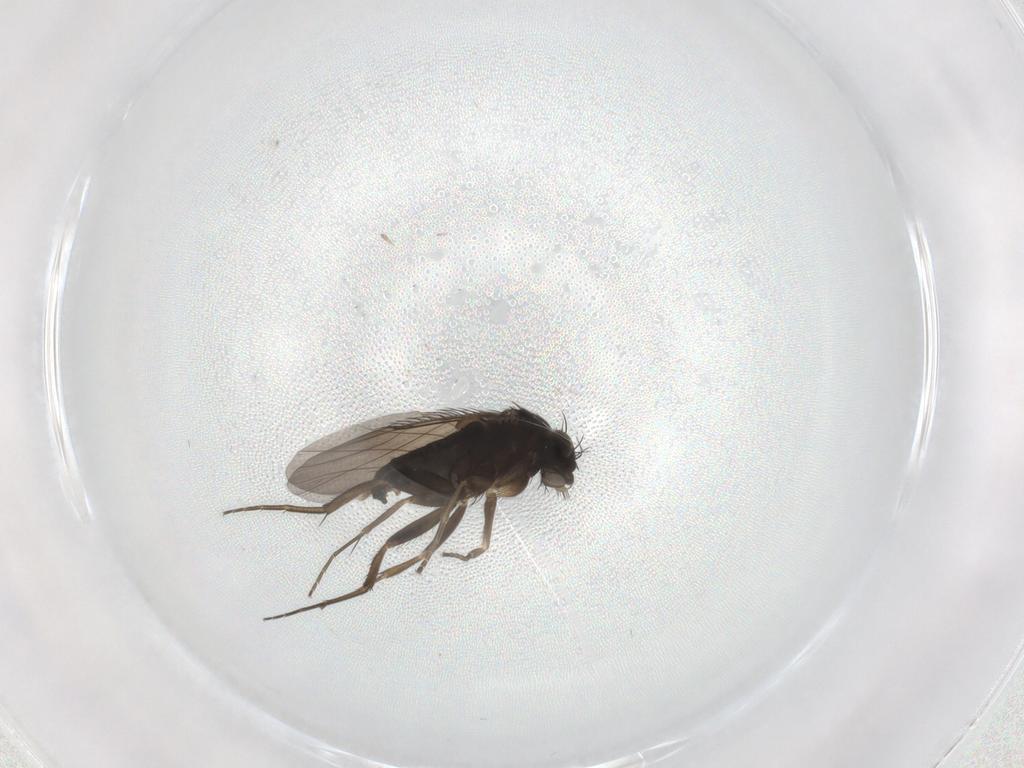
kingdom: Animalia
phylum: Arthropoda
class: Insecta
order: Diptera
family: Phoridae
